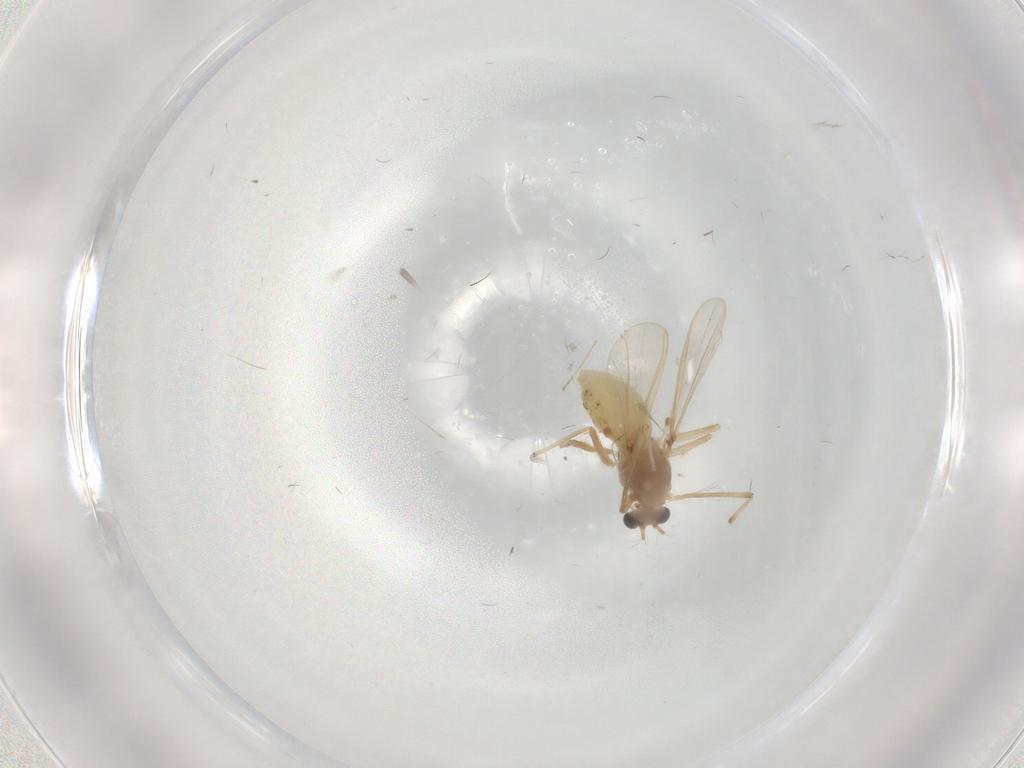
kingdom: Animalia
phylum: Arthropoda
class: Insecta
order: Diptera
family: Chironomidae
